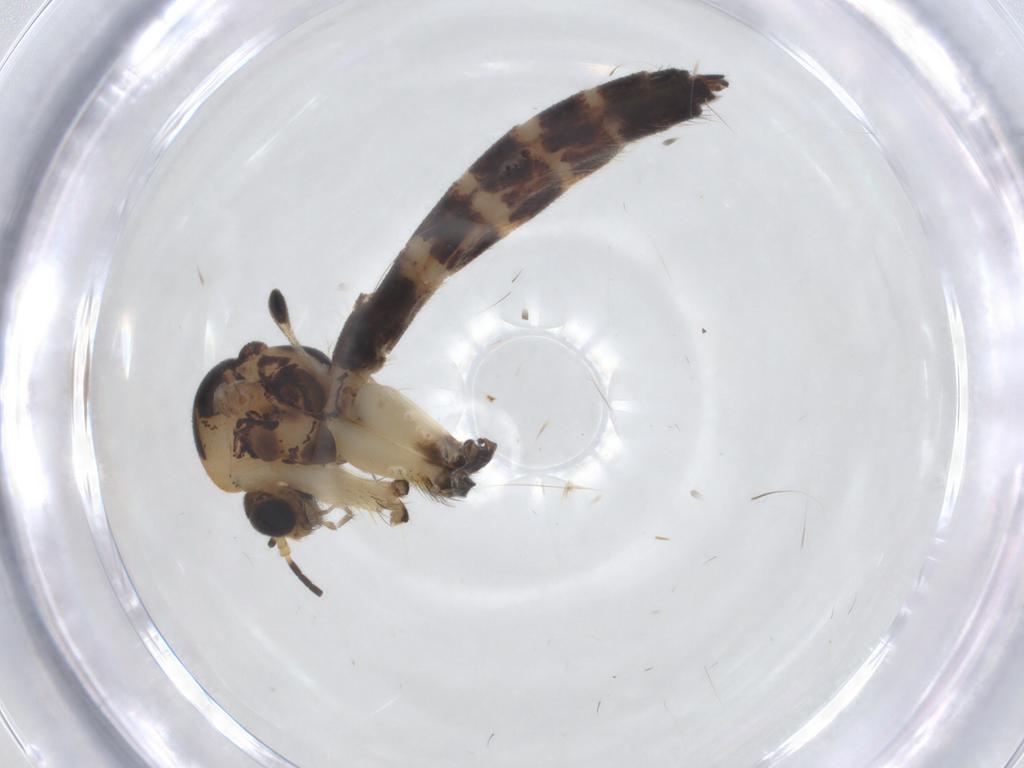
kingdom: Animalia
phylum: Arthropoda
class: Insecta
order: Diptera
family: Mycetophilidae
